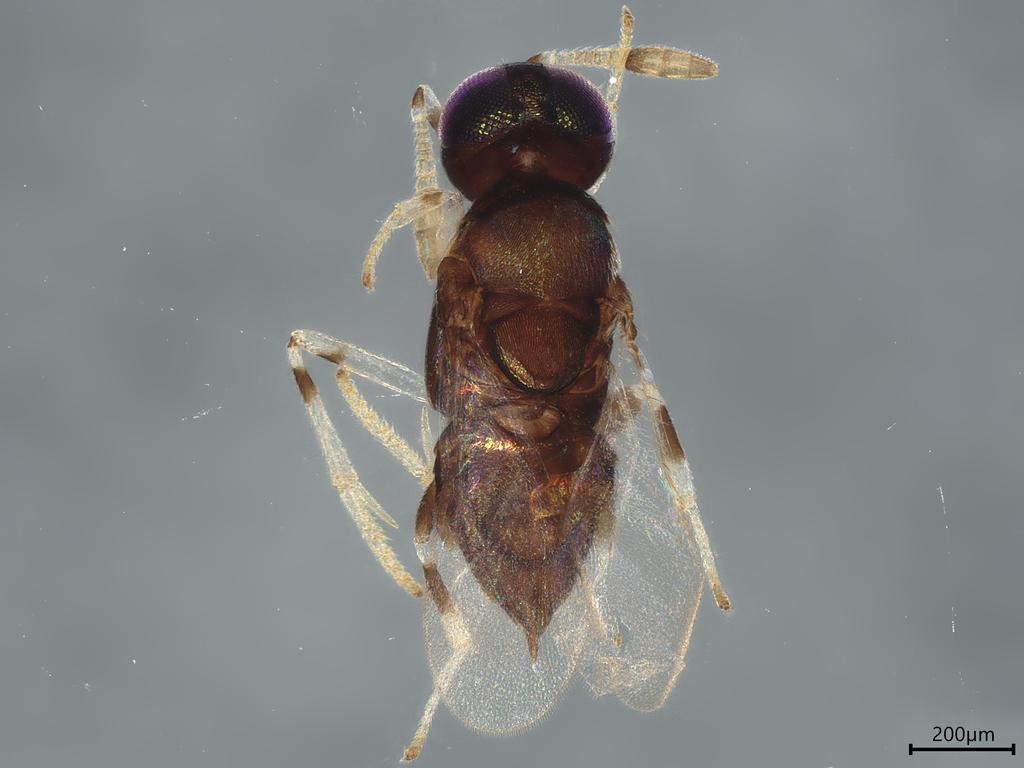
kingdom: Animalia
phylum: Arthropoda
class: Insecta
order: Hymenoptera
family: Encyrtidae
